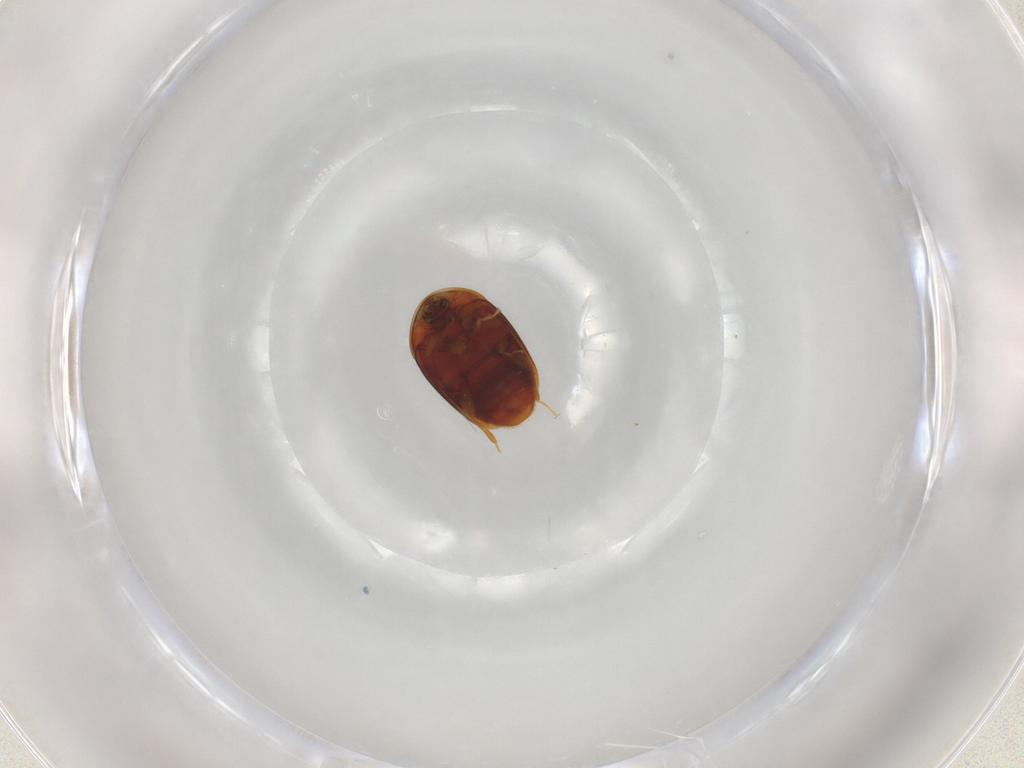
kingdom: Animalia
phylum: Arthropoda
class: Insecta
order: Coleoptera
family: Corylophidae
